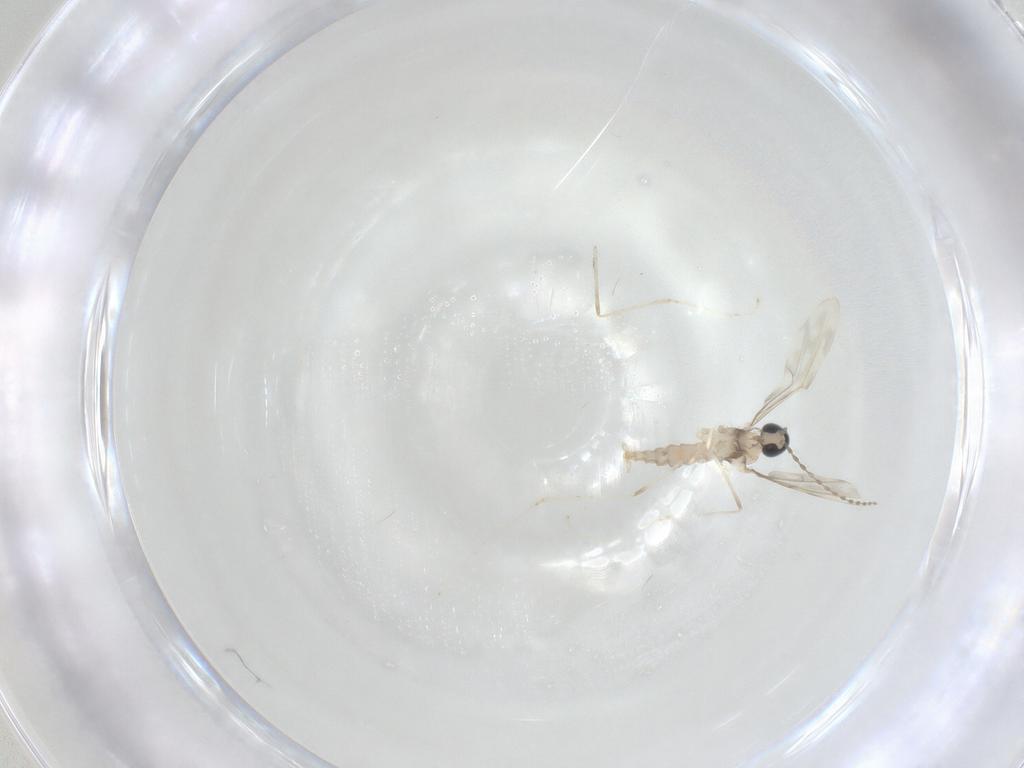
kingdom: Animalia
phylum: Arthropoda
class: Insecta
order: Diptera
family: Cecidomyiidae
